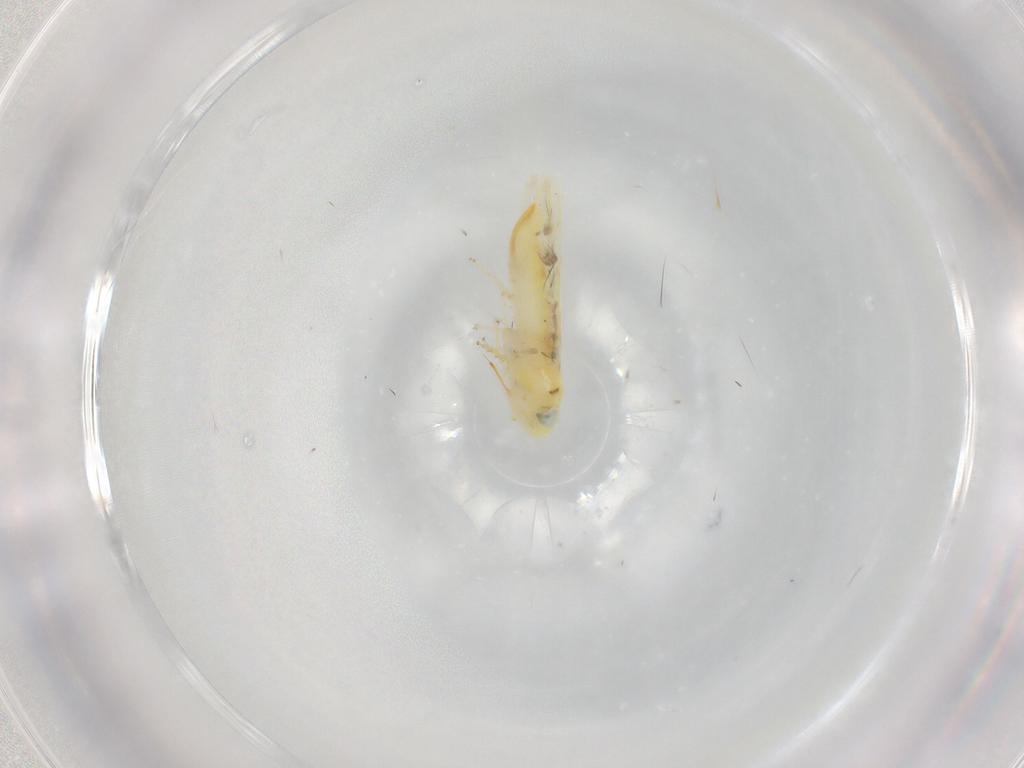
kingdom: Animalia
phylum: Arthropoda
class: Insecta
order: Hemiptera
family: Cicadellidae
